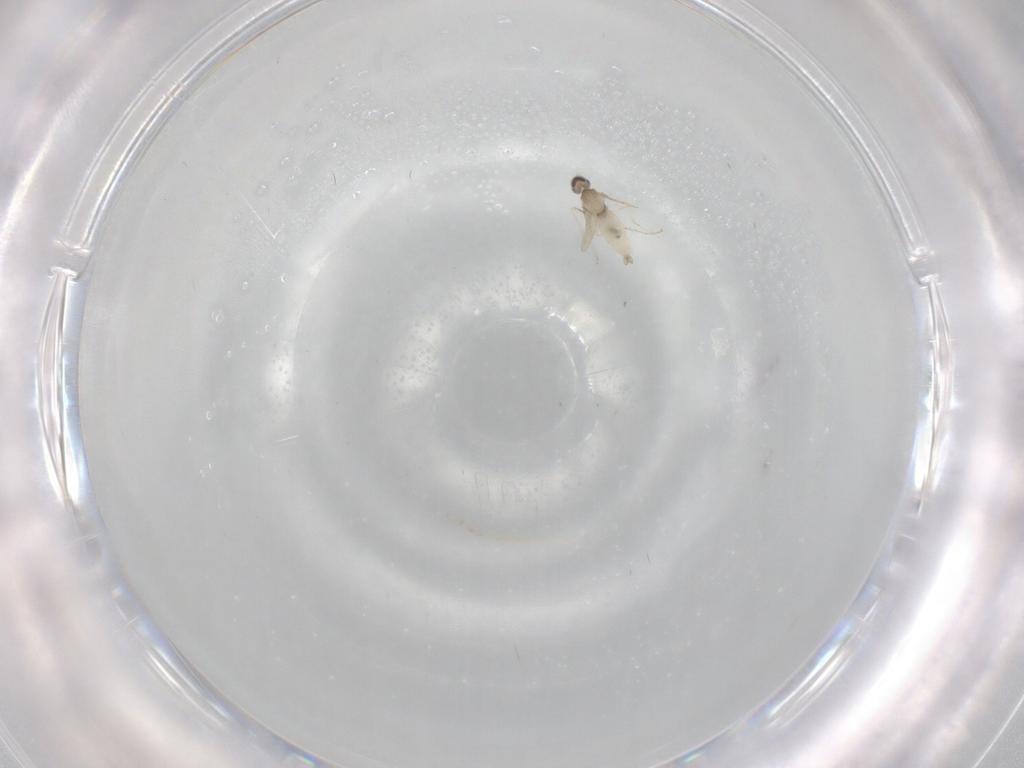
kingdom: Animalia
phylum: Arthropoda
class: Insecta
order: Diptera
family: Cecidomyiidae
